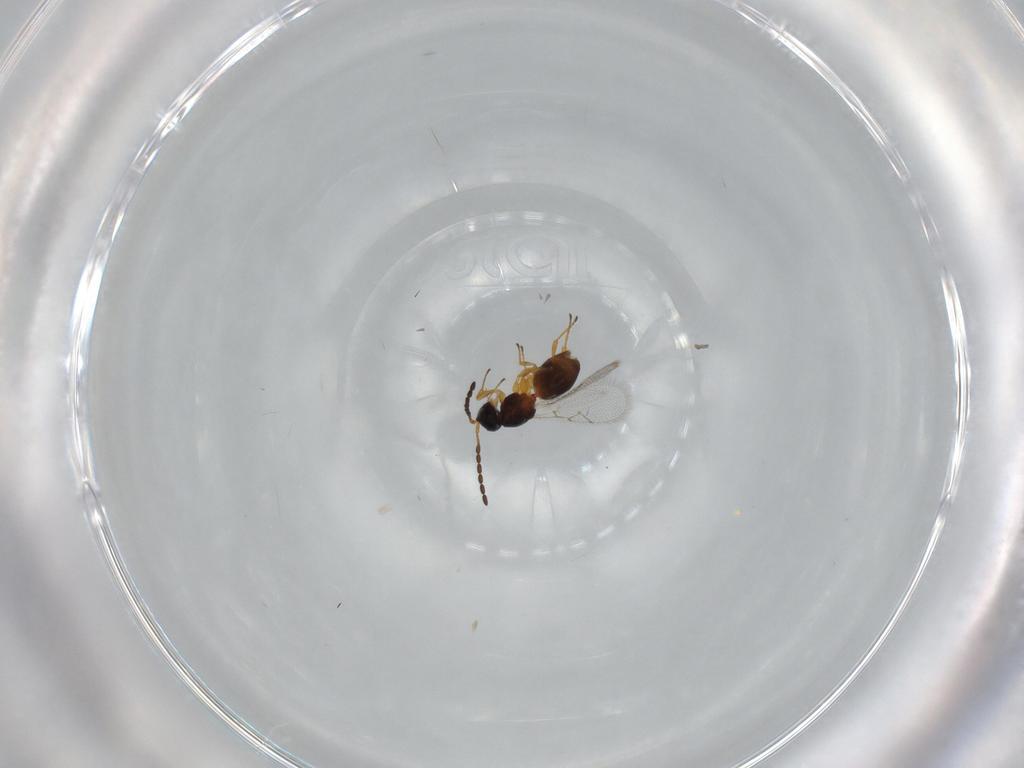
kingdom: Animalia
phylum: Arthropoda
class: Insecta
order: Hymenoptera
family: Figitidae
